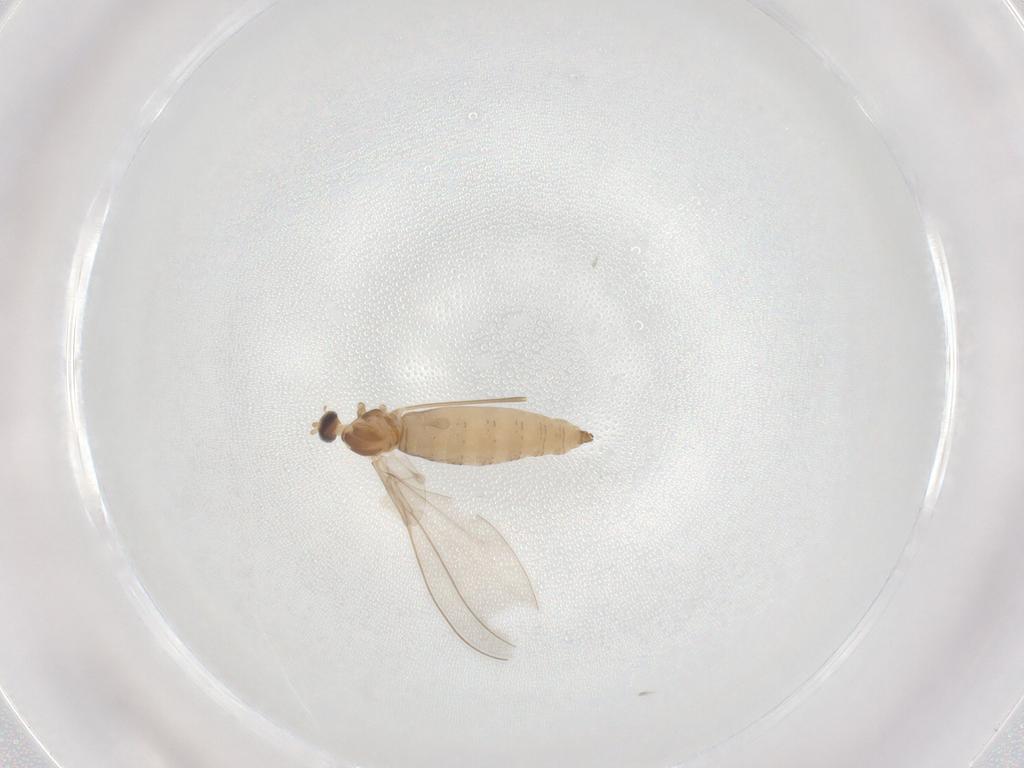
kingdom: Animalia
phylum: Arthropoda
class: Insecta
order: Diptera
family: Cecidomyiidae
